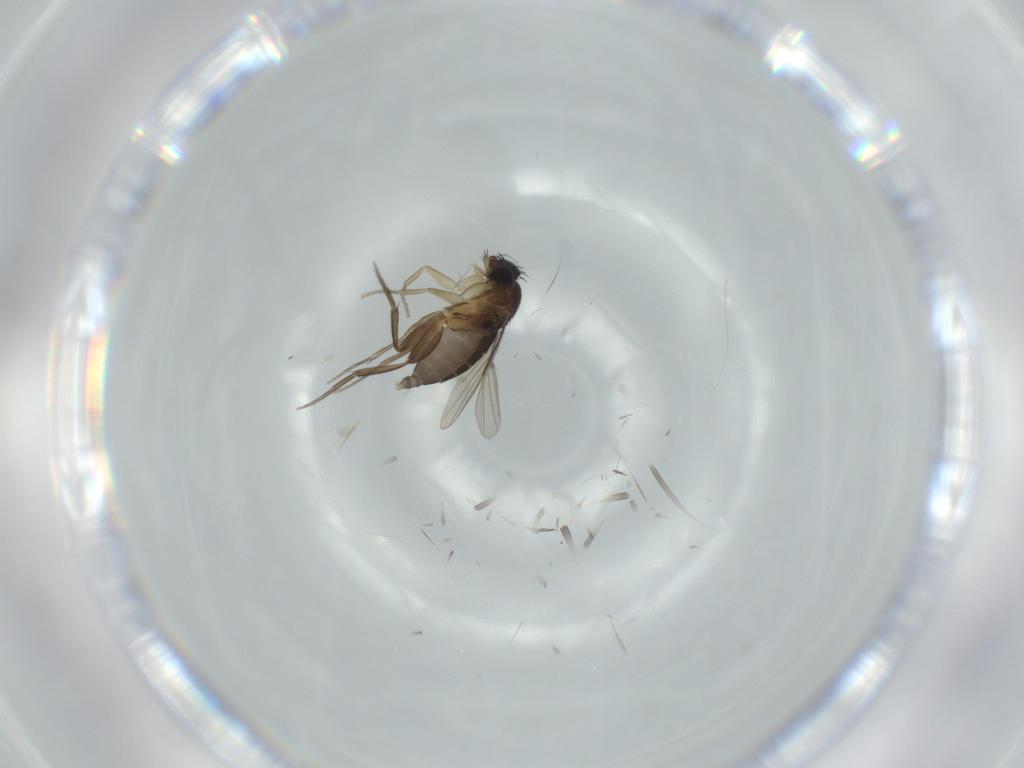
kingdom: Animalia
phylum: Arthropoda
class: Insecta
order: Diptera
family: Phoridae
